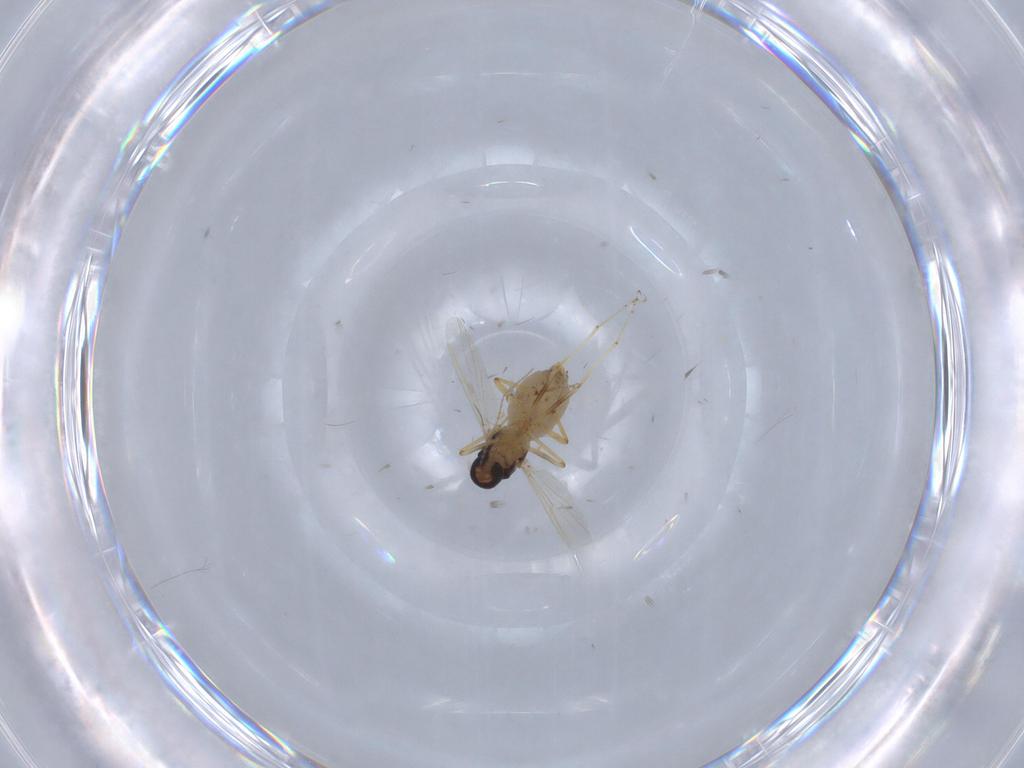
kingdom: Animalia
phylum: Arthropoda
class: Insecta
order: Diptera
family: Ceratopogonidae
